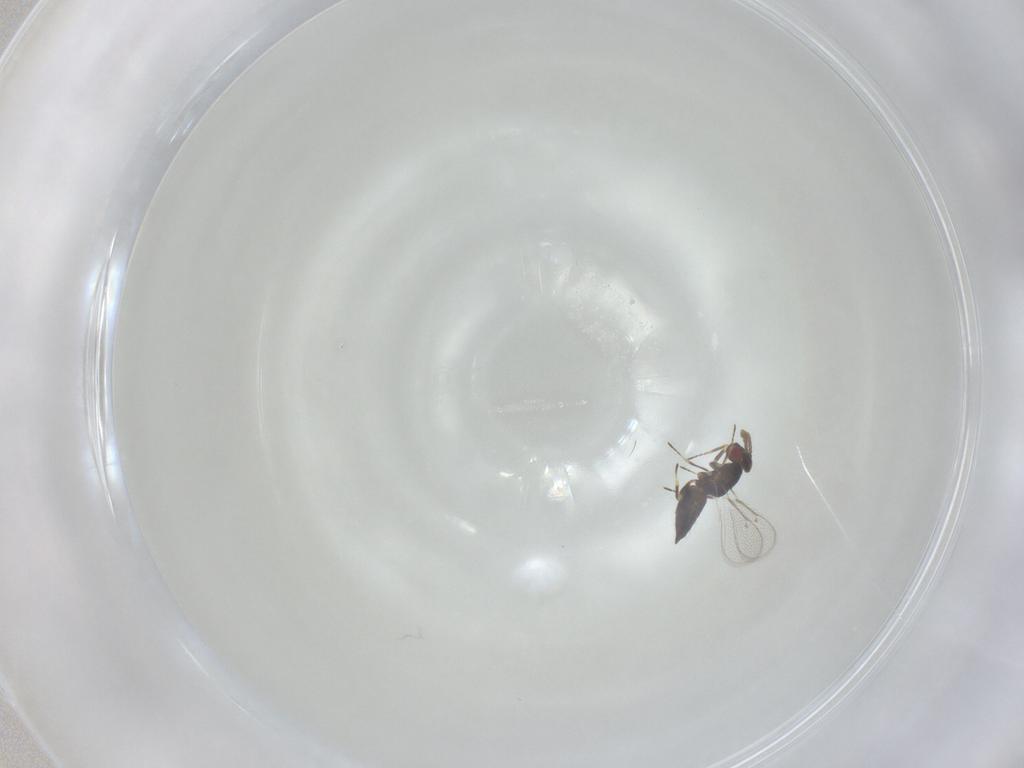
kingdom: Animalia
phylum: Arthropoda
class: Insecta
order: Hymenoptera
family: Eulophidae
